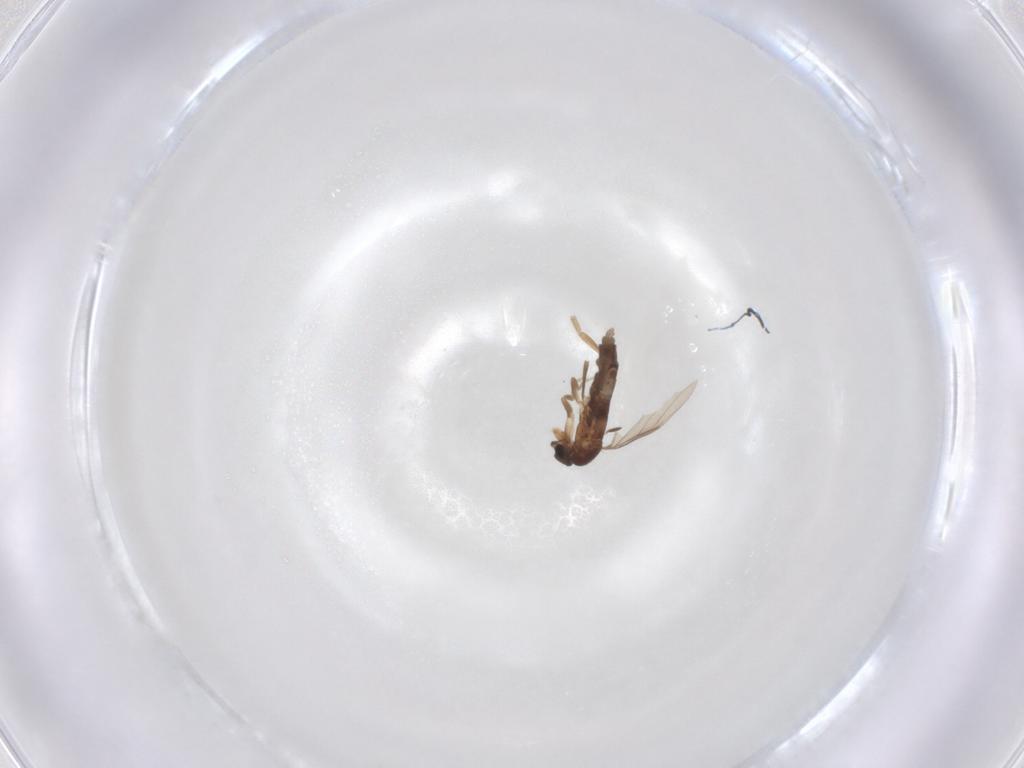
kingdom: Animalia
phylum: Arthropoda
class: Insecta
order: Diptera
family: Phoridae
